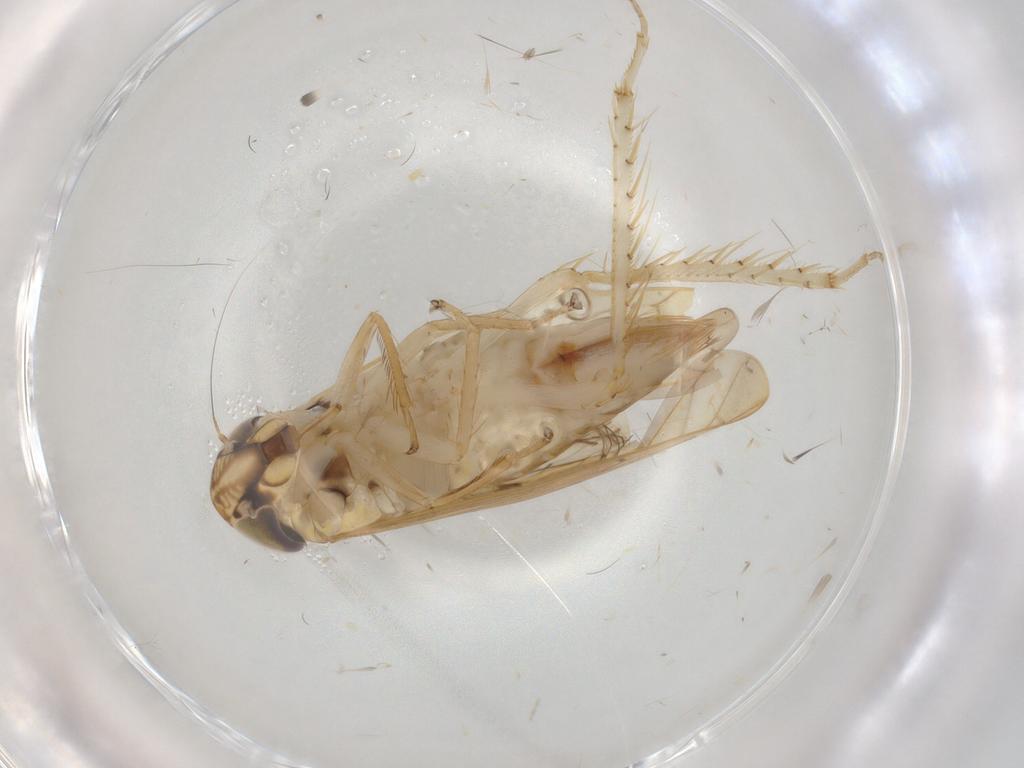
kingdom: Animalia
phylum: Arthropoda
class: Insecta
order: Hemiptera
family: Cicadellidae
